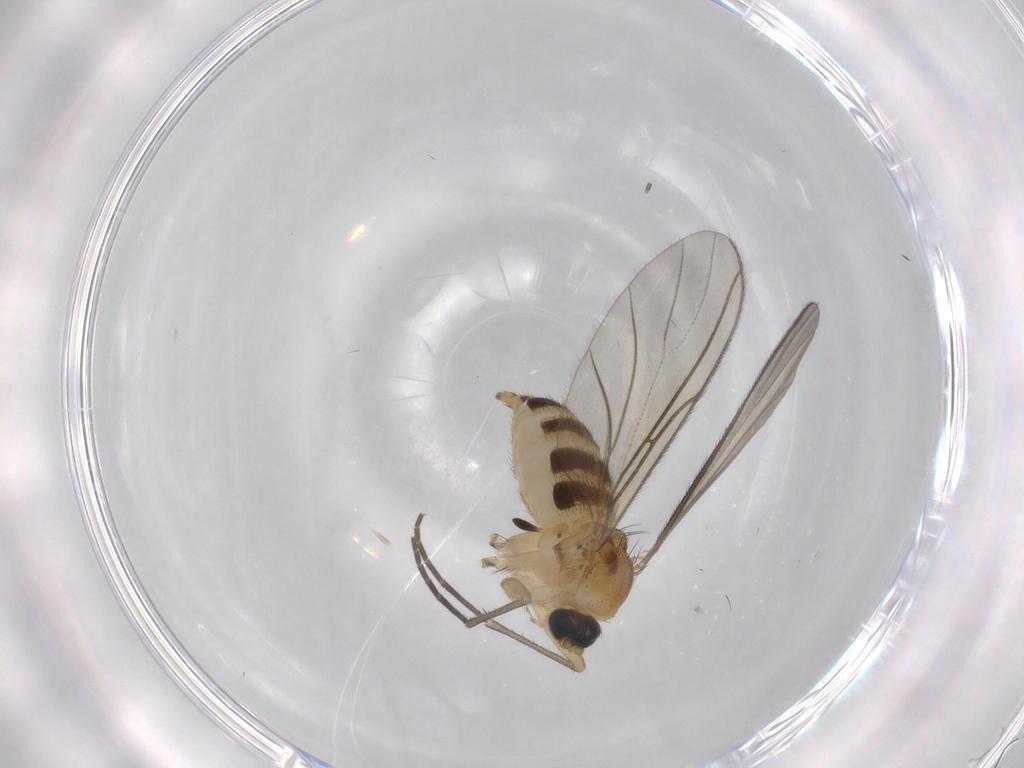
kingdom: Animalia
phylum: Arthropoda
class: Insecta
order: Diptera
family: Sciaridae
